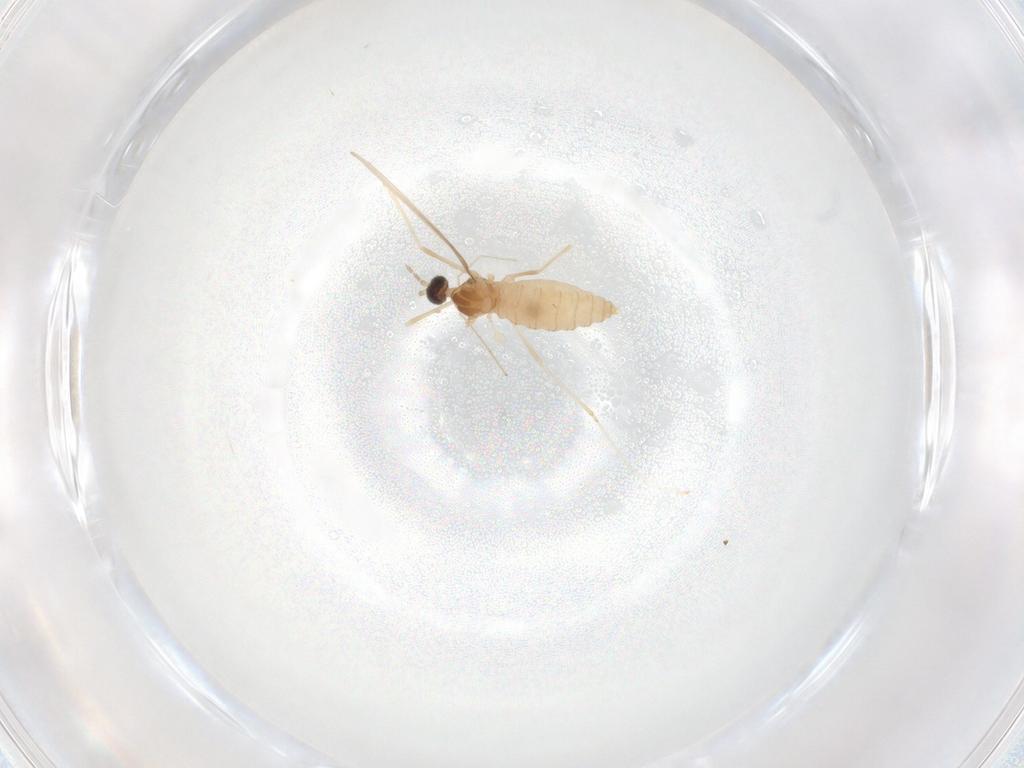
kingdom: Animalia
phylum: Arthropoda
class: Insecta
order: Diptera
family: Cecidomyiidae
